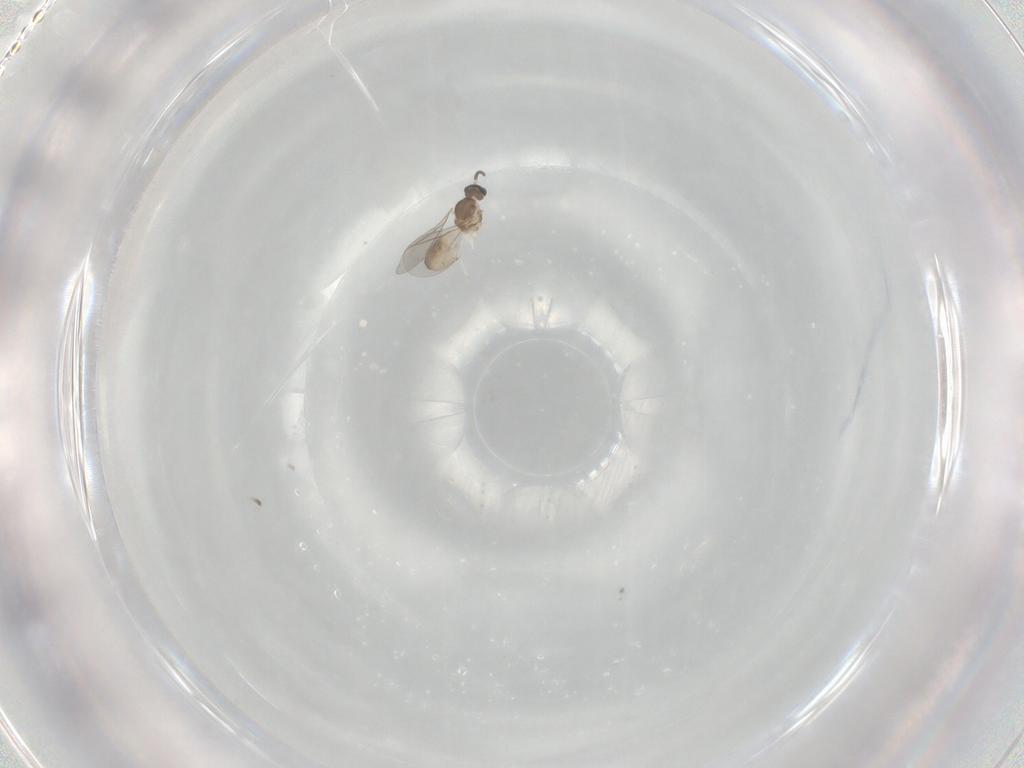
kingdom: Animalia
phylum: Arthropoda
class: Insecta
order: Diptera
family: Cecidomyiidae
